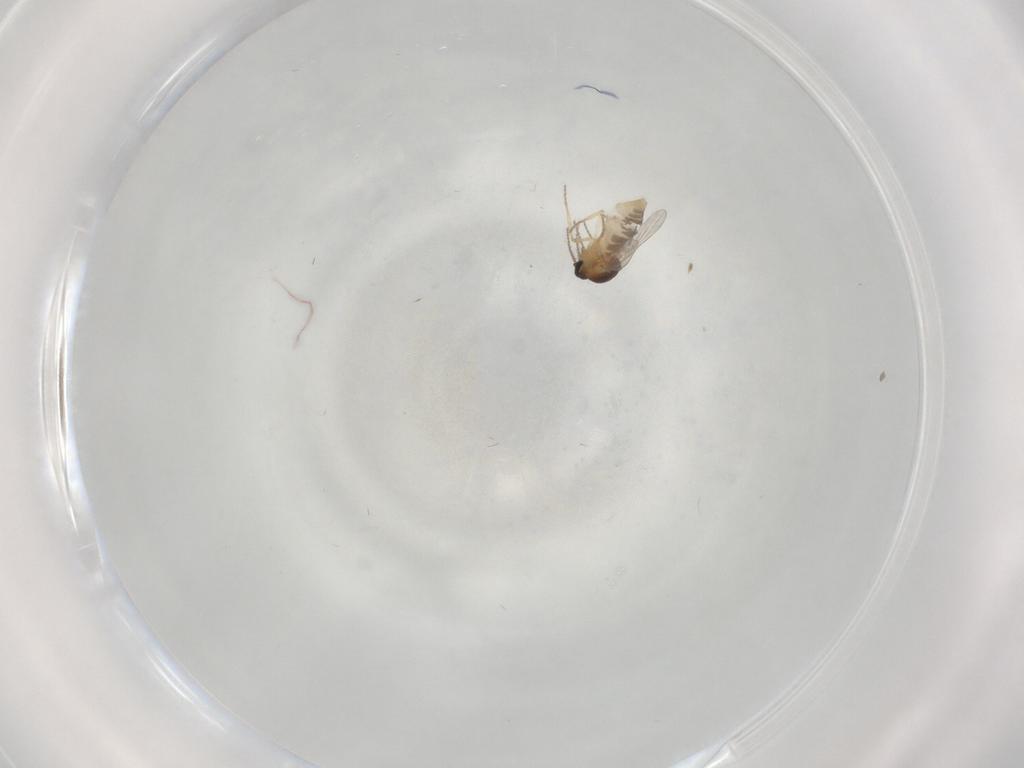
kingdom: Animalia
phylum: Arthropoda
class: Insecta
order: Diptera
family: Ceratopogonidae
